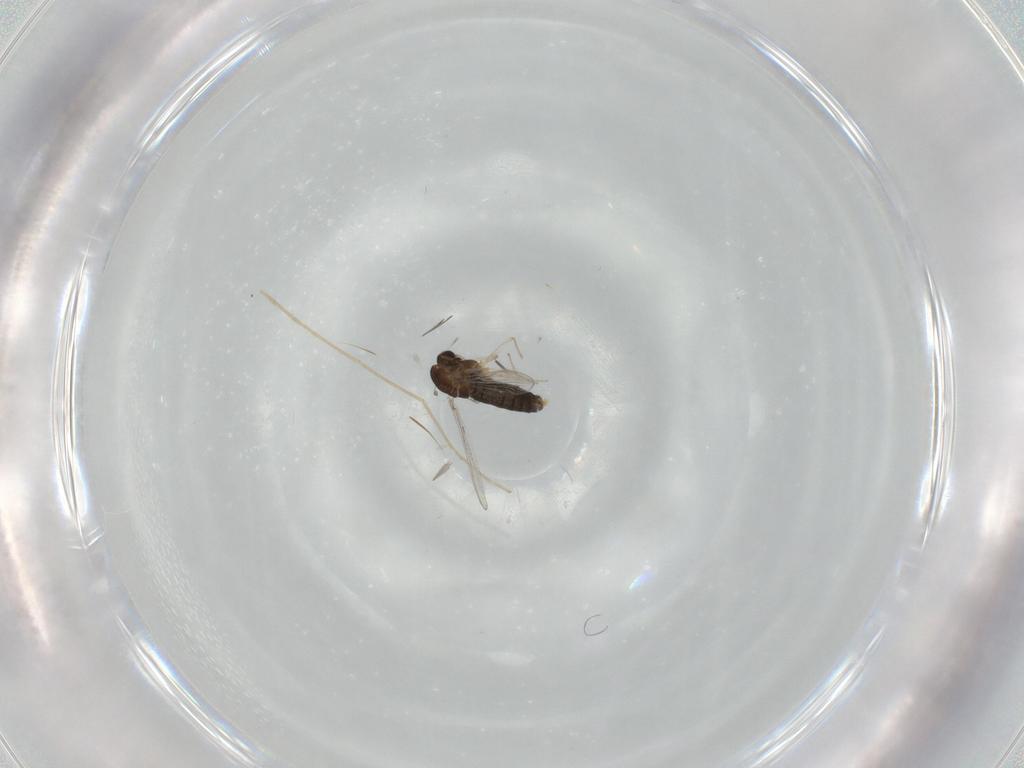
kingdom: Animalia
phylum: Arthropoda
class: Insecta
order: Diptera
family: Chironomidae
